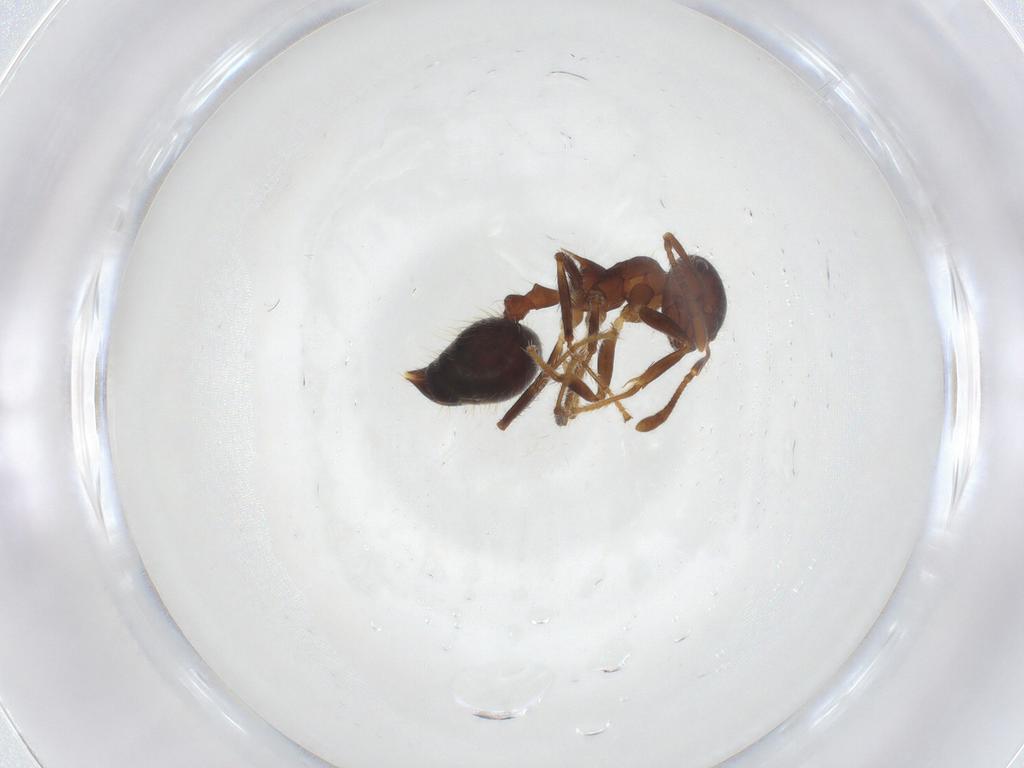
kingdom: Animalia
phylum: Arthropoda
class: Insecta
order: Hymenoptera
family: Formicidae
